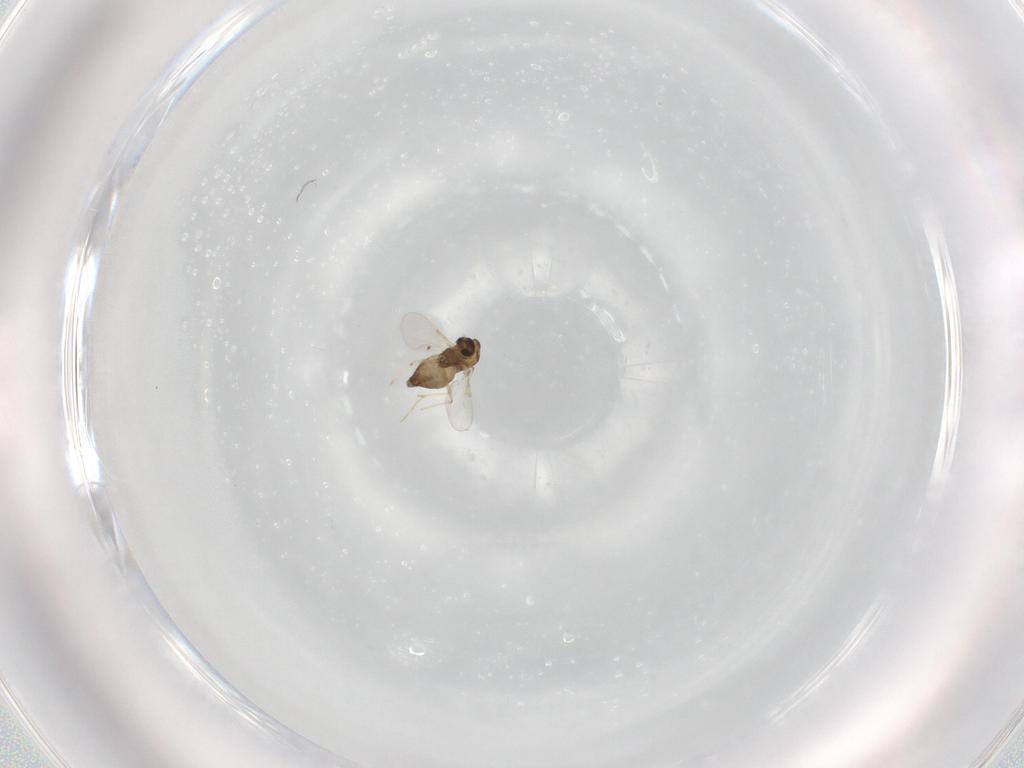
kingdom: Animalia
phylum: Arthropoda
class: Insecta
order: Diptera
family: Chironomidae
